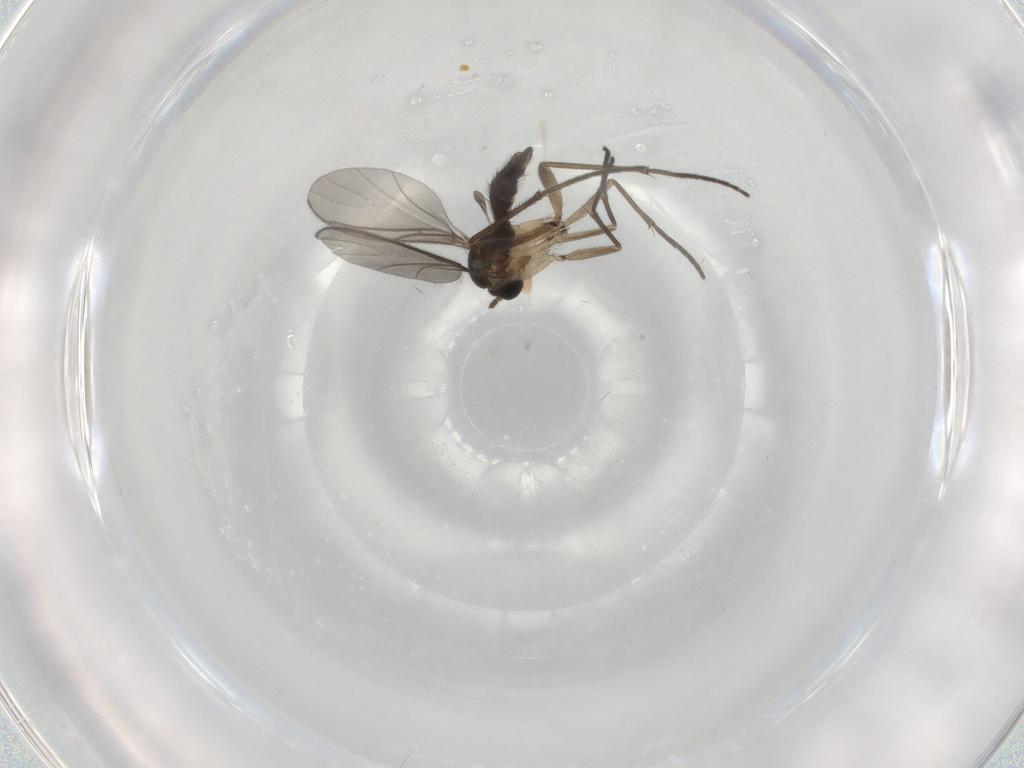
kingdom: Animalia
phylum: Arthropoda
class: Insecta
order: Diptera
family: Sciaridae
